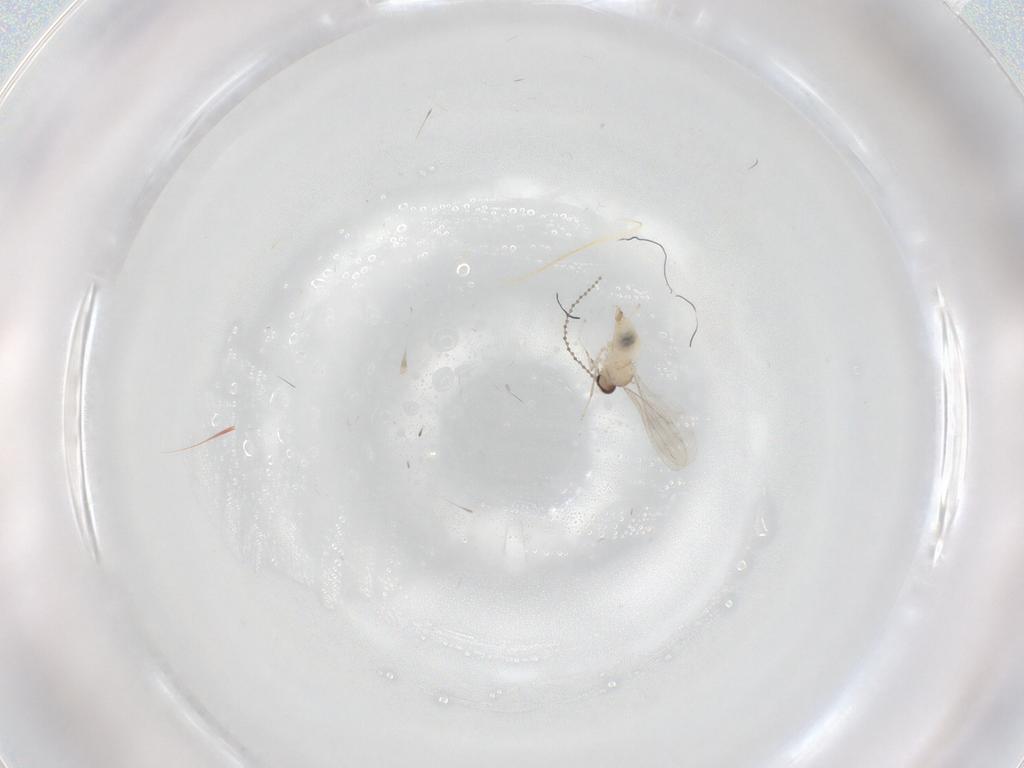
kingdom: Animalia
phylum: Arthropoda
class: Insecta
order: Diptera
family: Cecidomyiidae
